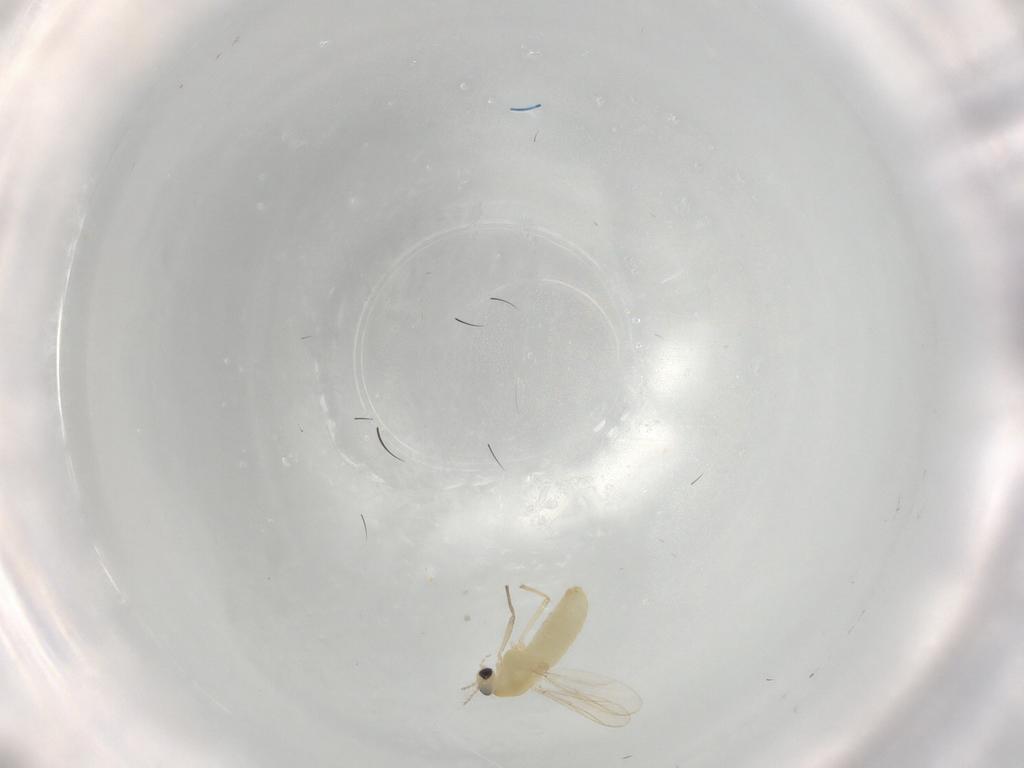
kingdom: Animalia
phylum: Arthropoda
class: Insecta
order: Diptera
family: Chironomidae
